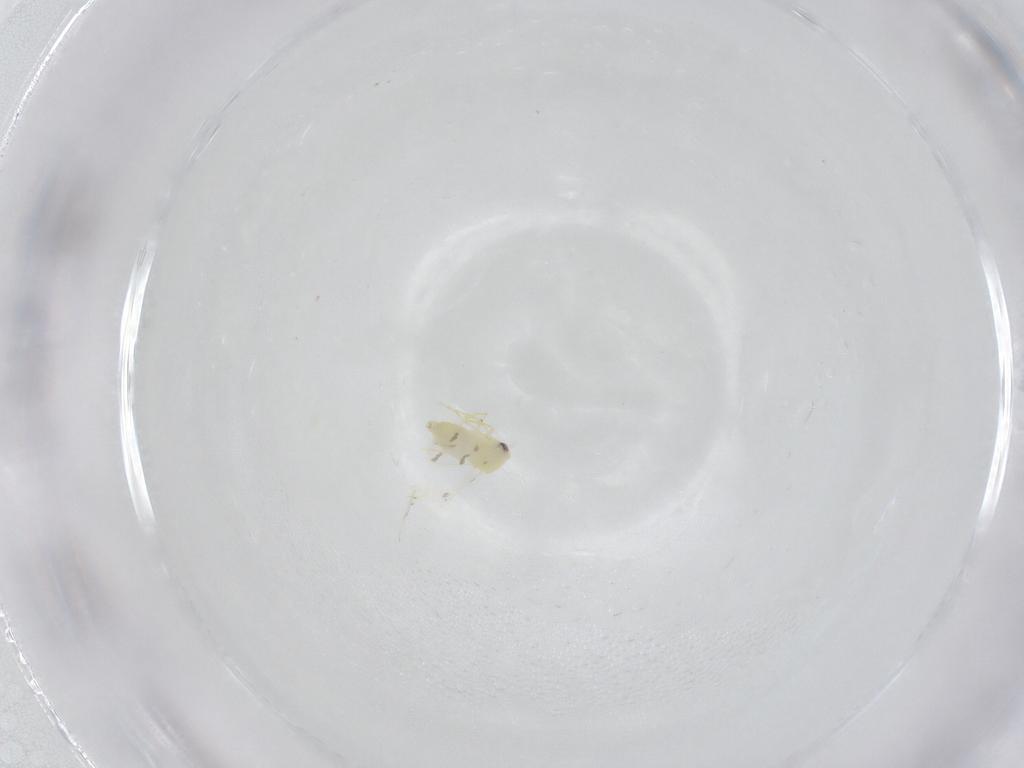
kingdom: Animalia
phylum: Arthropoda
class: Insecta
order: Hemiptera
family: Aleyrodidae
